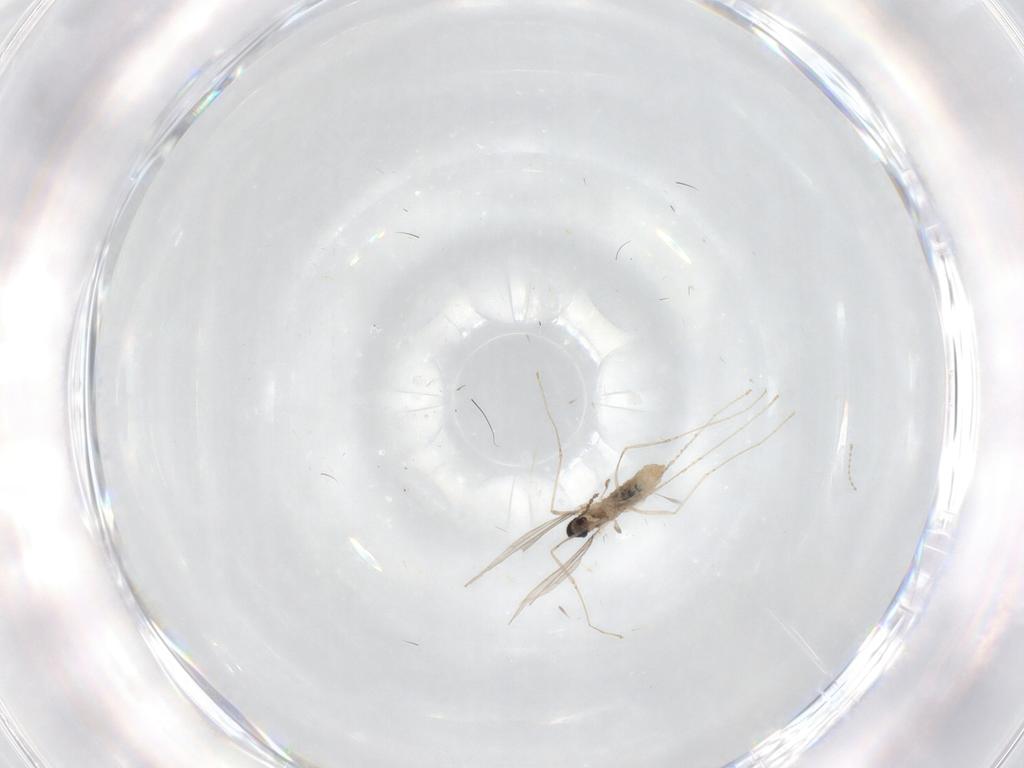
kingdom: Animalia
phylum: Arthropoda
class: Insecta
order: Diptera
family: Cecidomyiidae
